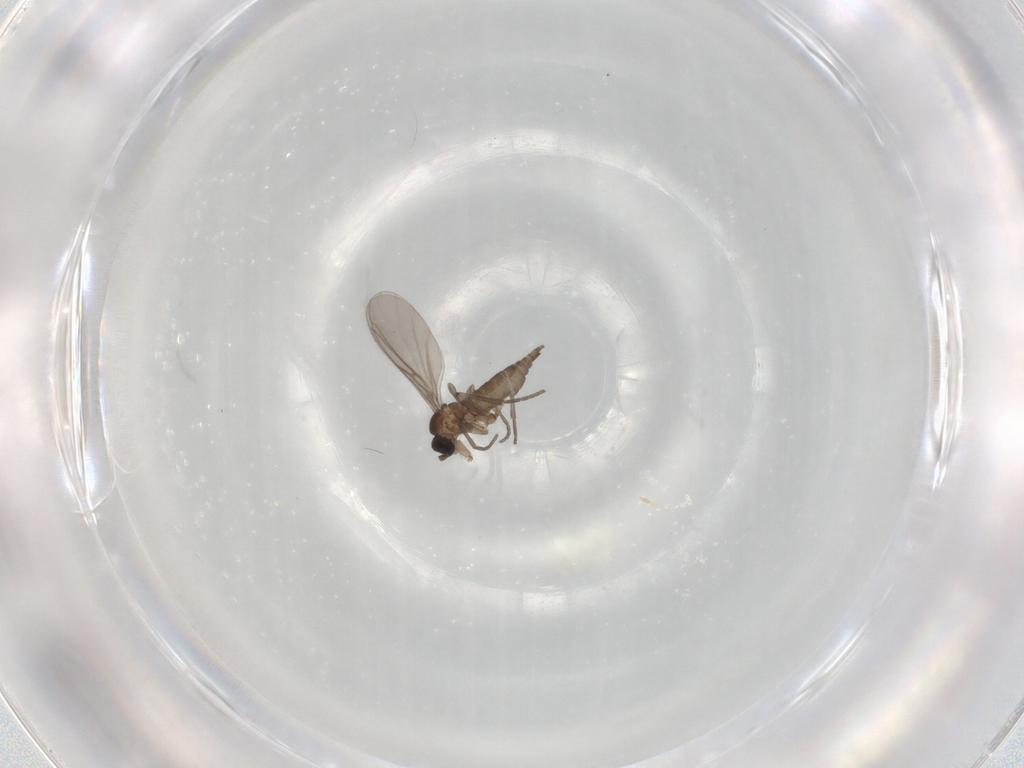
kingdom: Animalia
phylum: Arthropoda
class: Insecta
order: Diptera
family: Sciaridae
